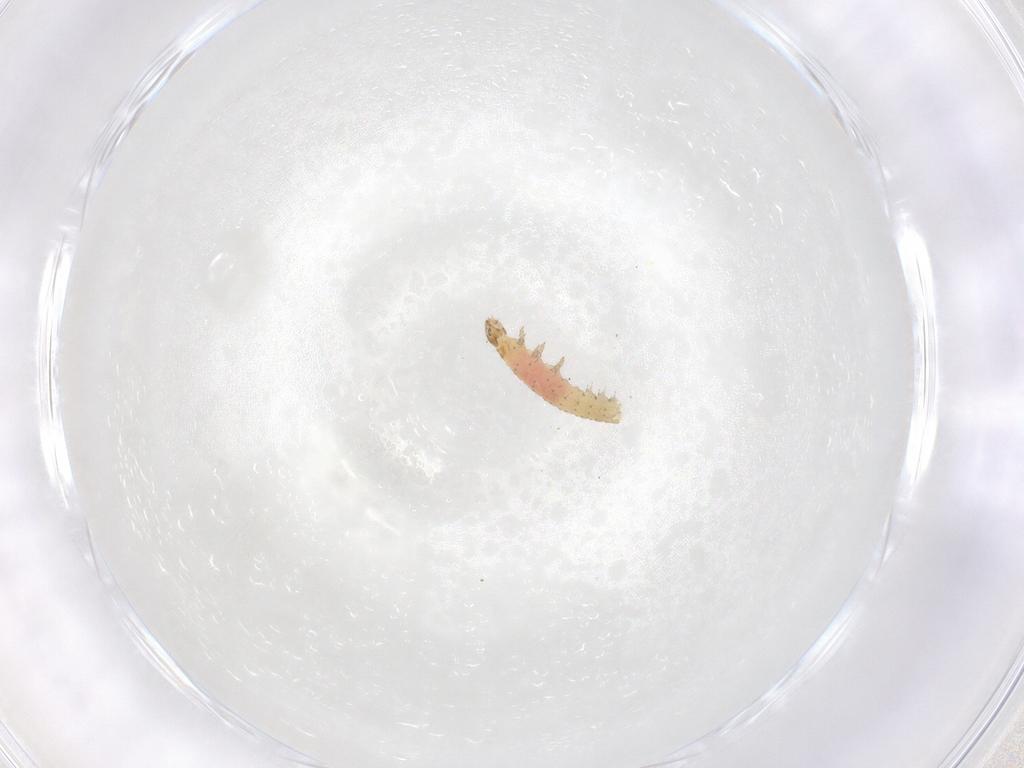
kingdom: Animalia
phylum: Arthropoda
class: Insecta
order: Lepidoptera
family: Gelechiidae
